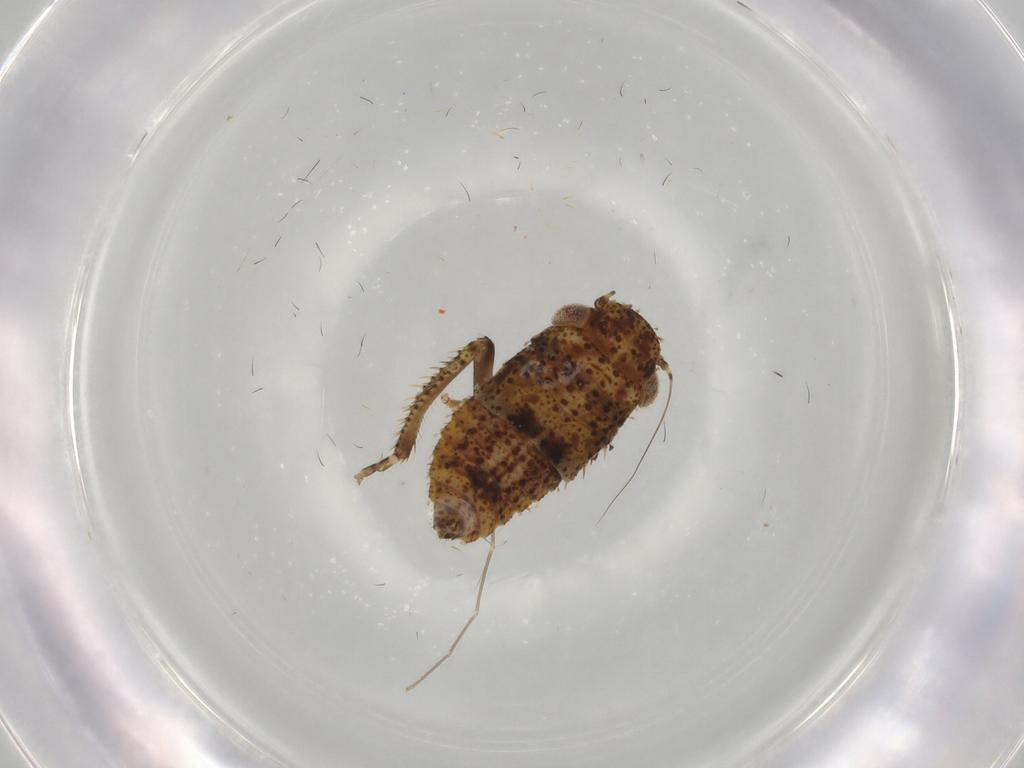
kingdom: Animalia
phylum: Arthropoda
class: Insecta
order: Hemiptera
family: Cicadellidae
